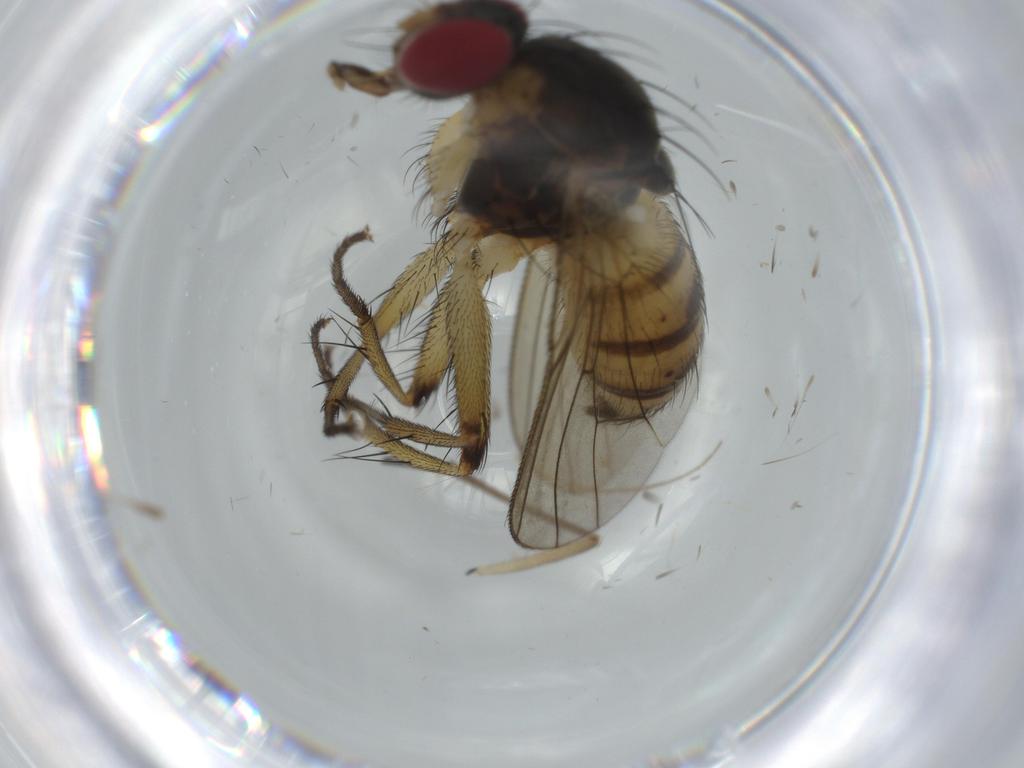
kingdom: Animalia
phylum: Arthropoda
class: Insecta
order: Diptera
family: Muscidae
